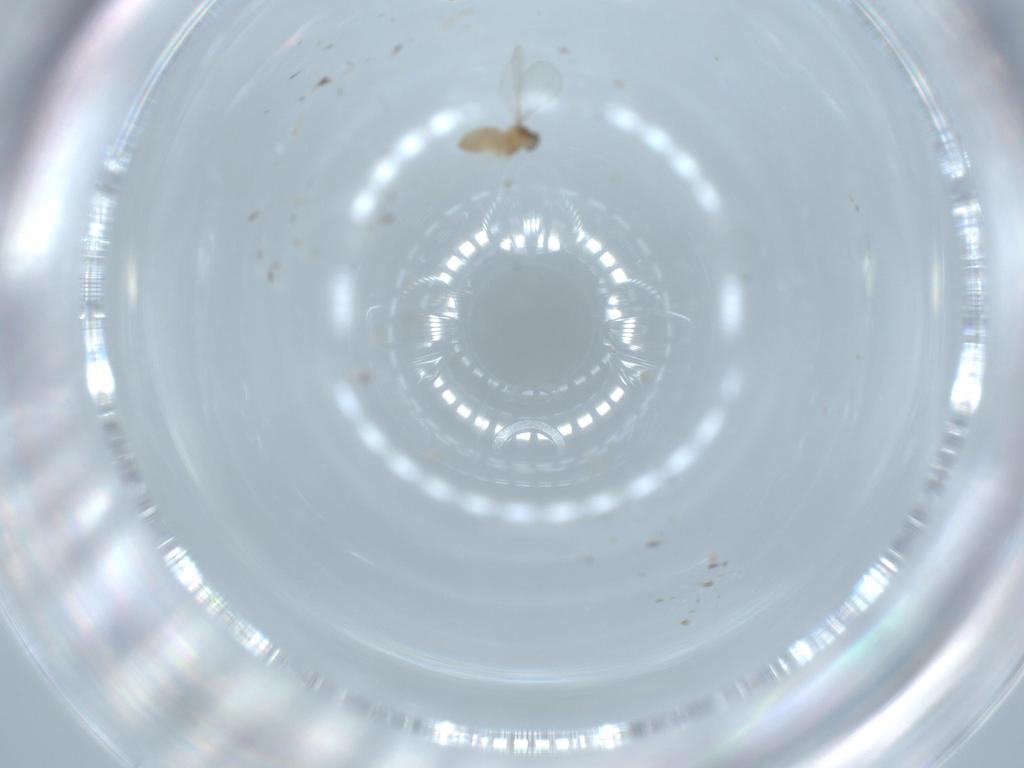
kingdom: Animalia
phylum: Arthropoda
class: Insecta
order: Diptera
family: Cecidomyiidae
